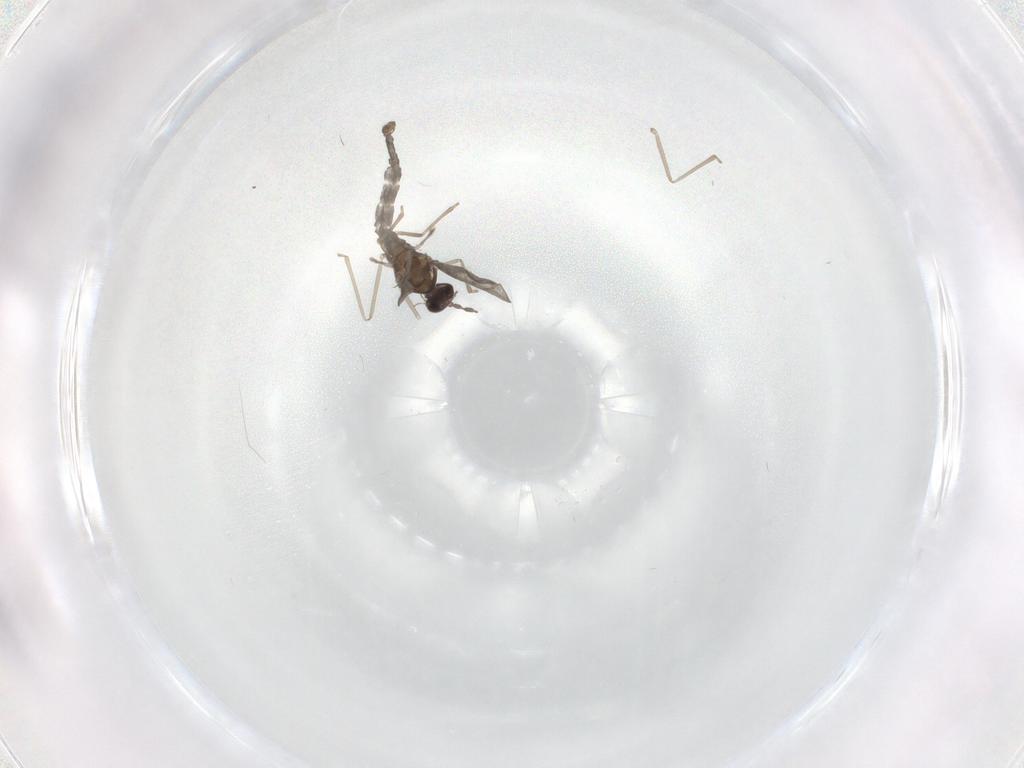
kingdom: Animalia
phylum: Arthropoda
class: Insecta
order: Diptera
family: Cecidomyiidae
